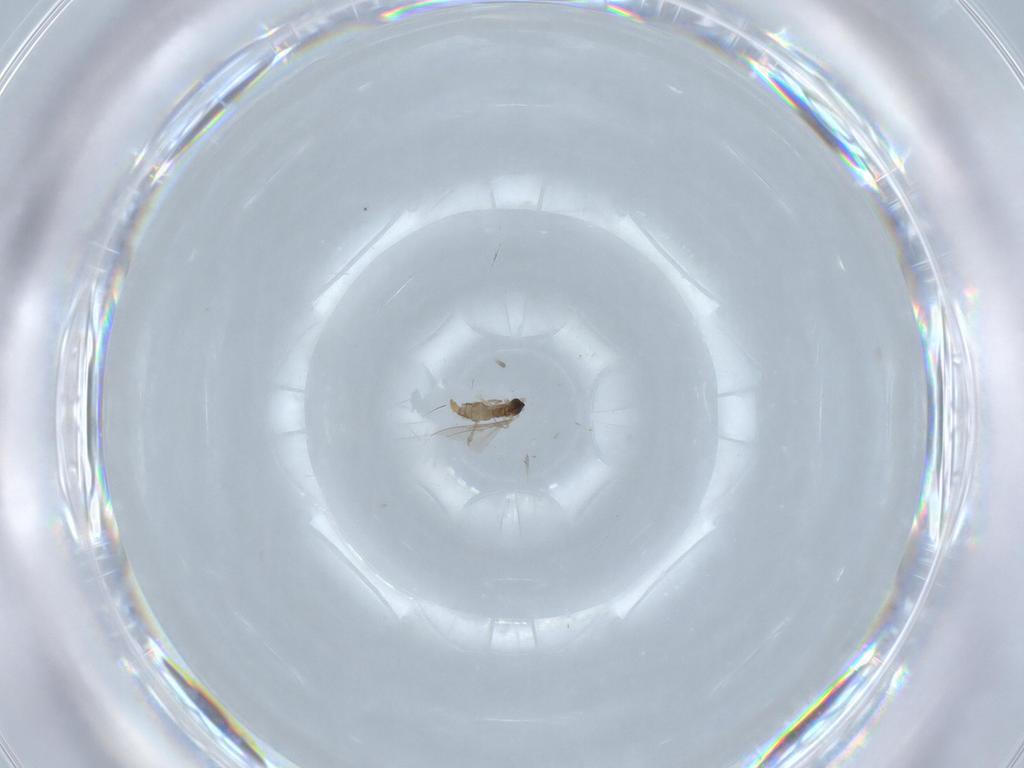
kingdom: Animalia
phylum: Arthropoda
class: Insecta
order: Diptera
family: Cecidomyiidae
